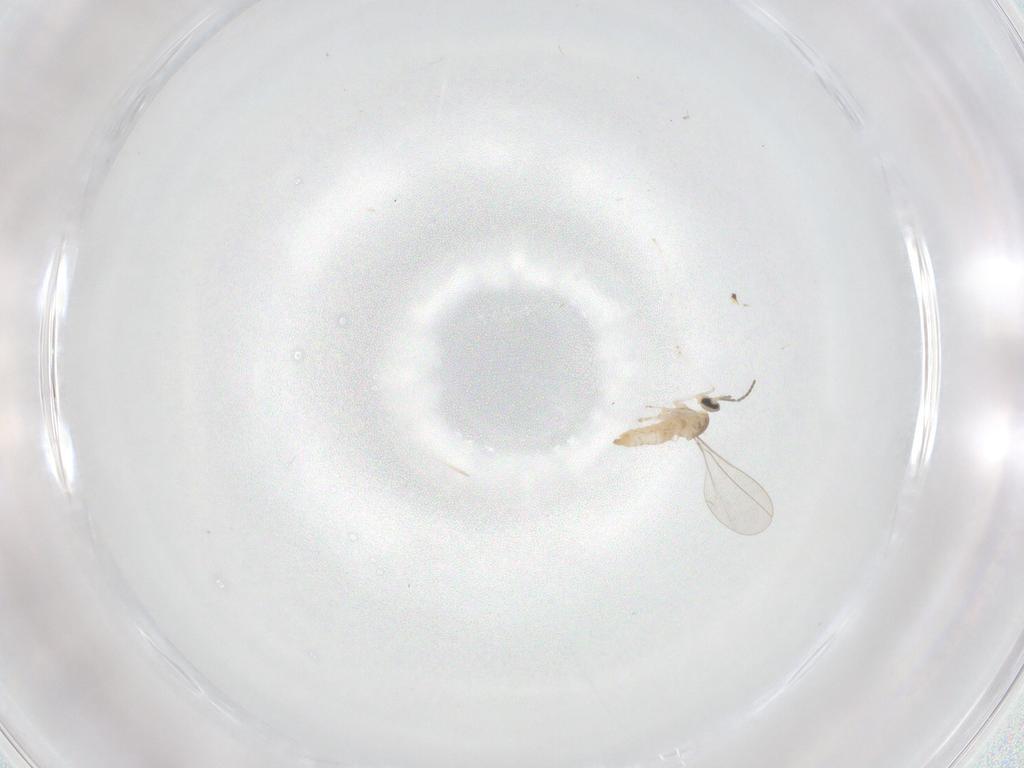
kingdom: Animalia
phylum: Arthropoda
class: Insecta
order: Diptera
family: Cecidomyiidae
